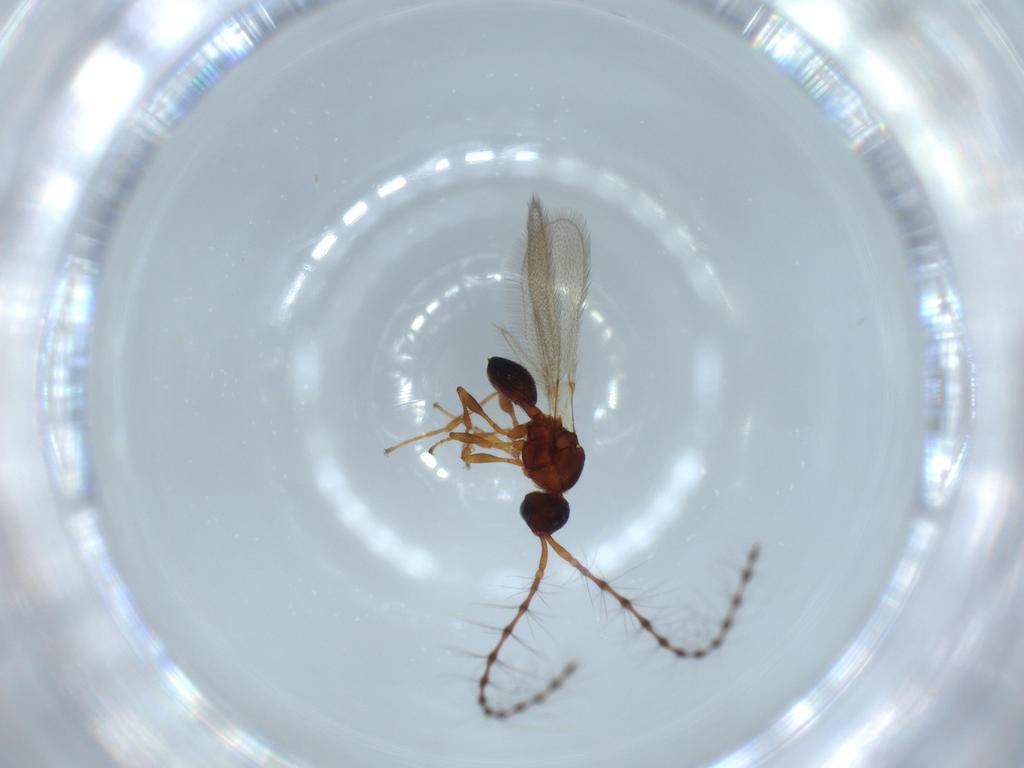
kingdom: Animalia
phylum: Arthropoda
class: Insecta
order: Hymenoptera
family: Diapriidae
